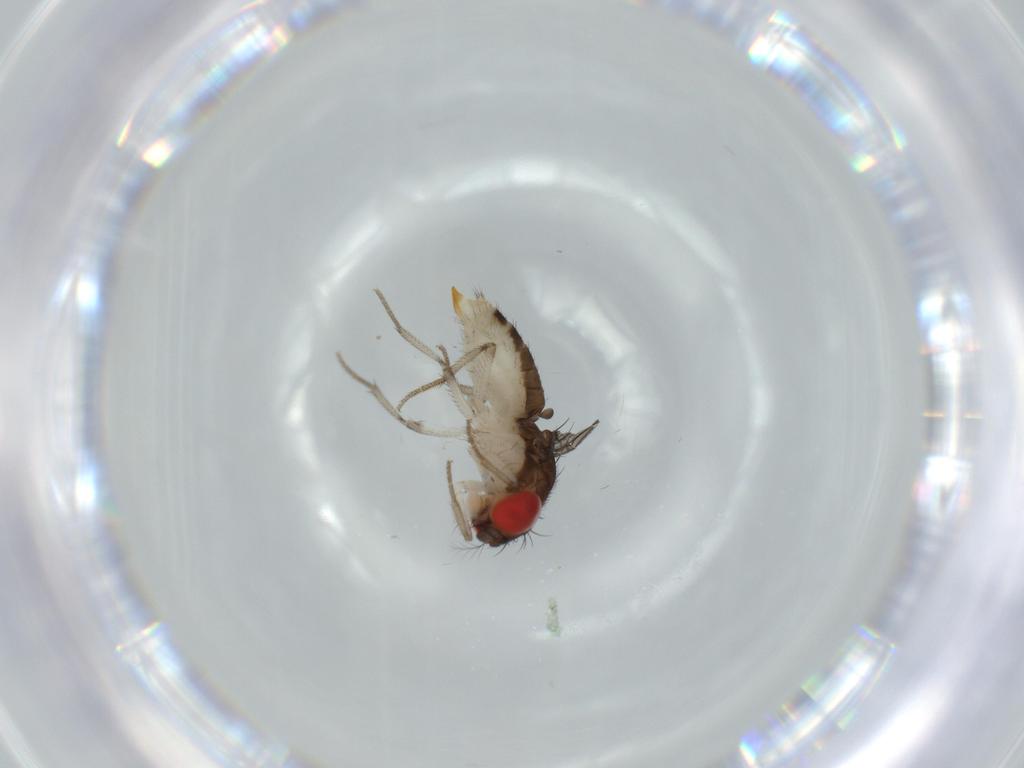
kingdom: Animalia
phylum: Arthropoda
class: Insecta
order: Diptera
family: Drosophilidae
